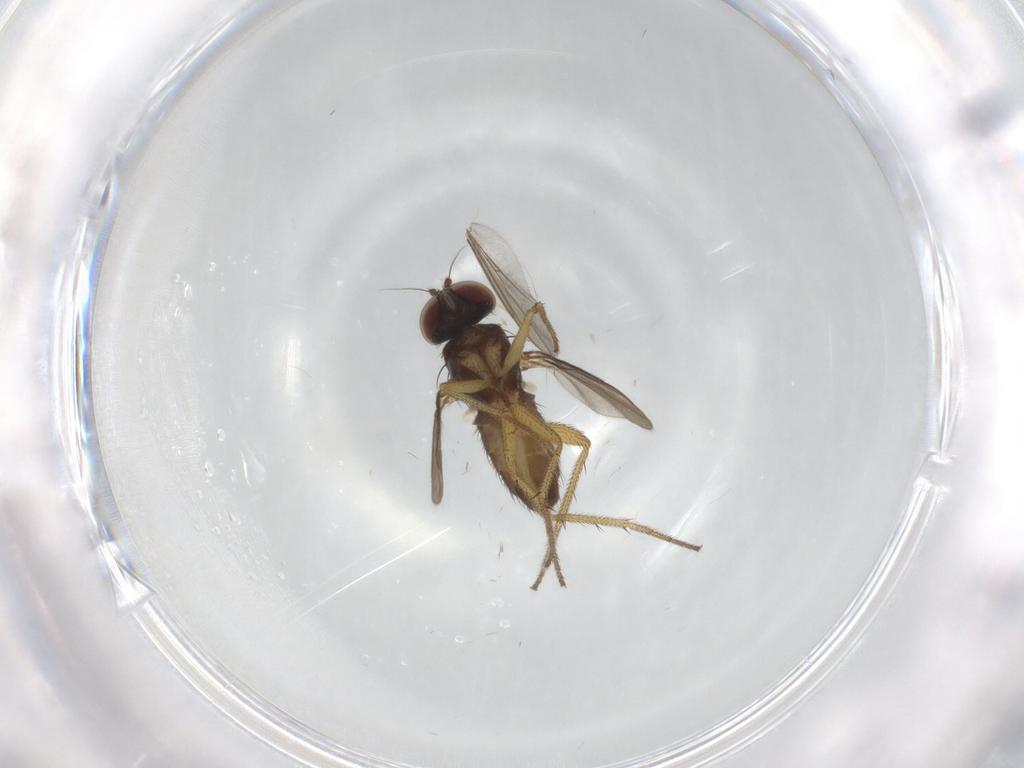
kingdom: Animalia
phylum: Arthropoda
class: Insecta
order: Diptera
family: Dolichopodidae
